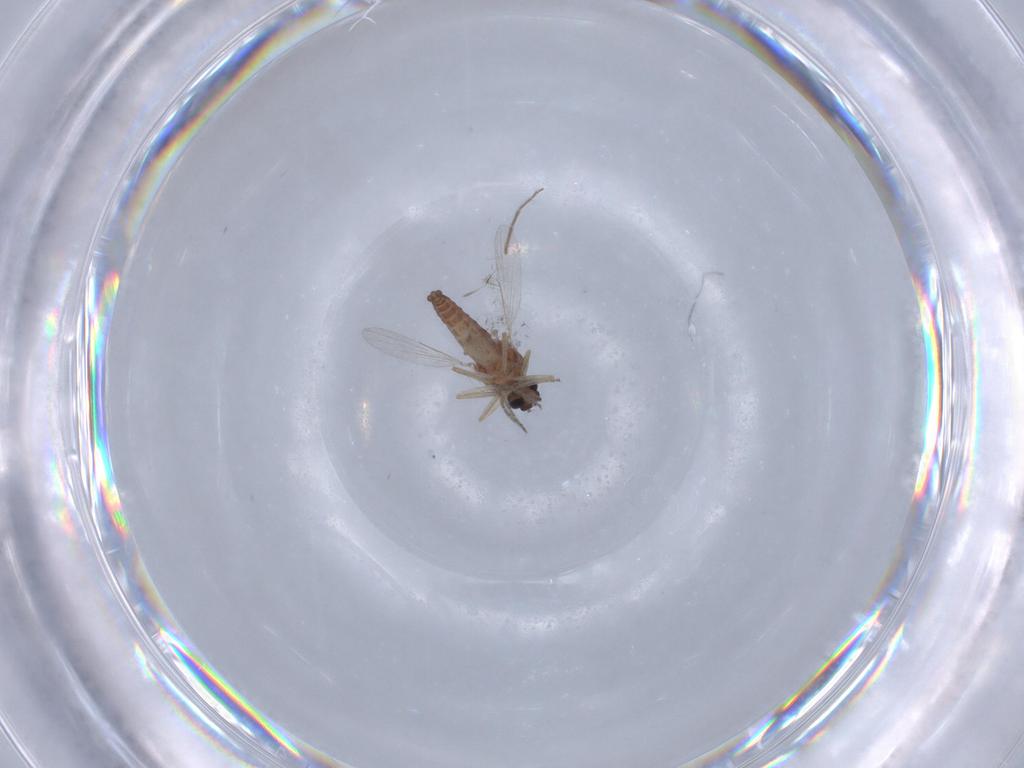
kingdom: Animalia
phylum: Arthropoda
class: Insecta
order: Diptera
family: Ceratopogonidae
